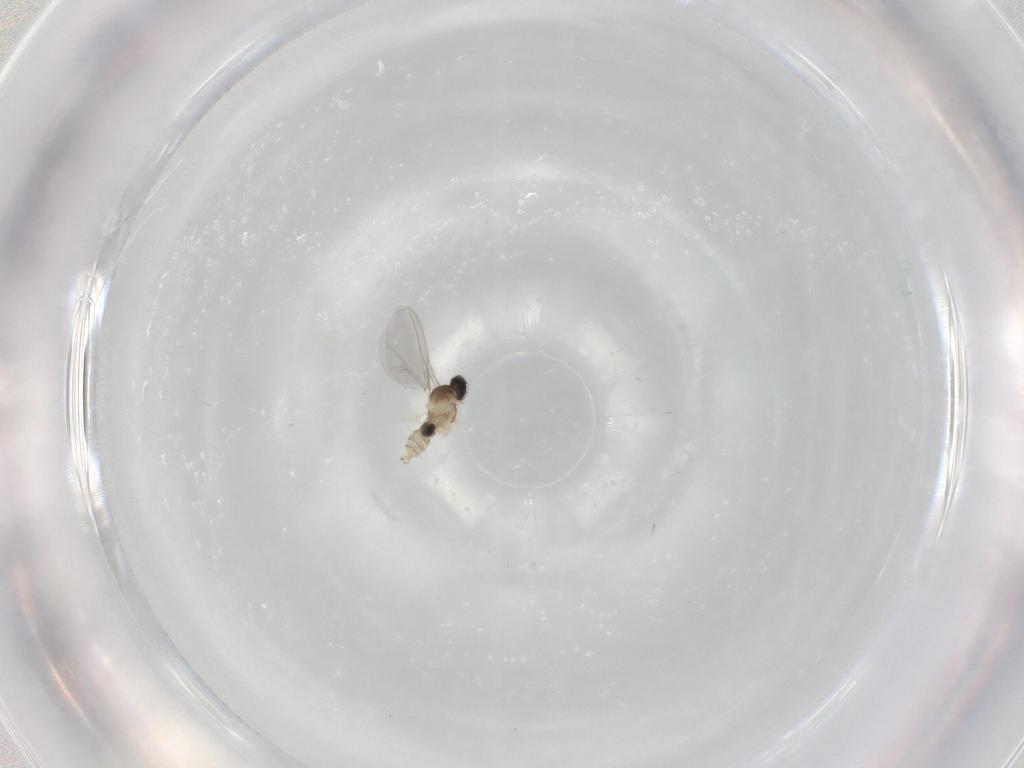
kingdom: Animalia
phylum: Arthropoda
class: Insecta
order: Diptera
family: Cecidomyiidae
